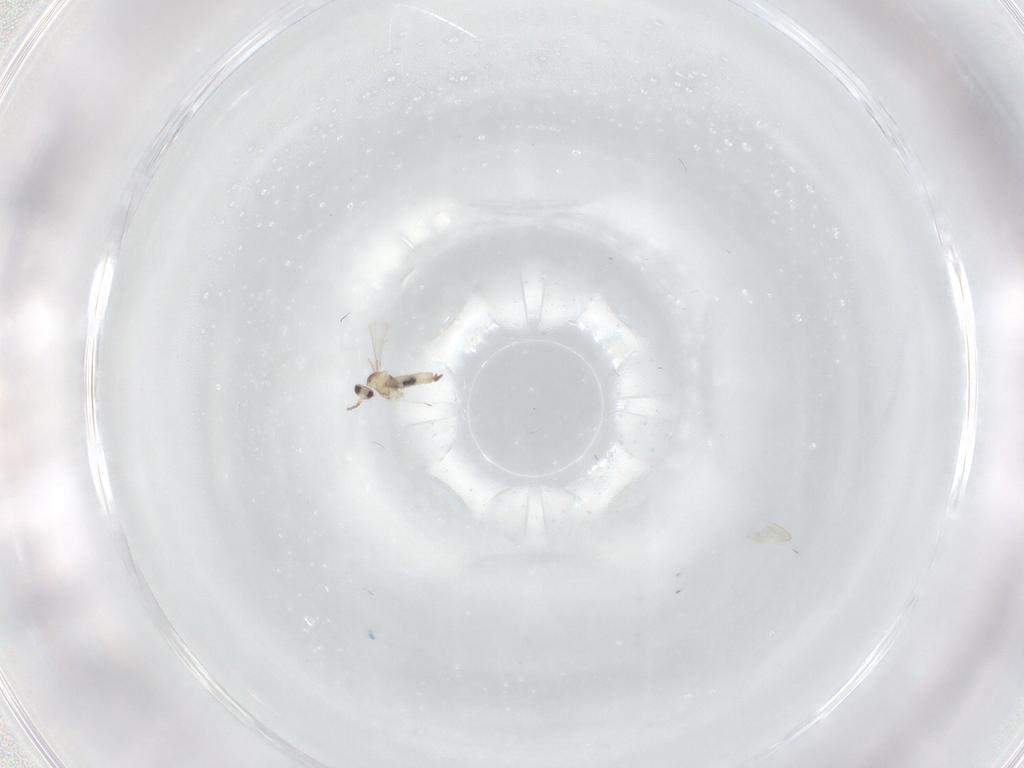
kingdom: Animalia
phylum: Arthropoda
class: Insecta
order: Diptera
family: Cecidomyiidae
